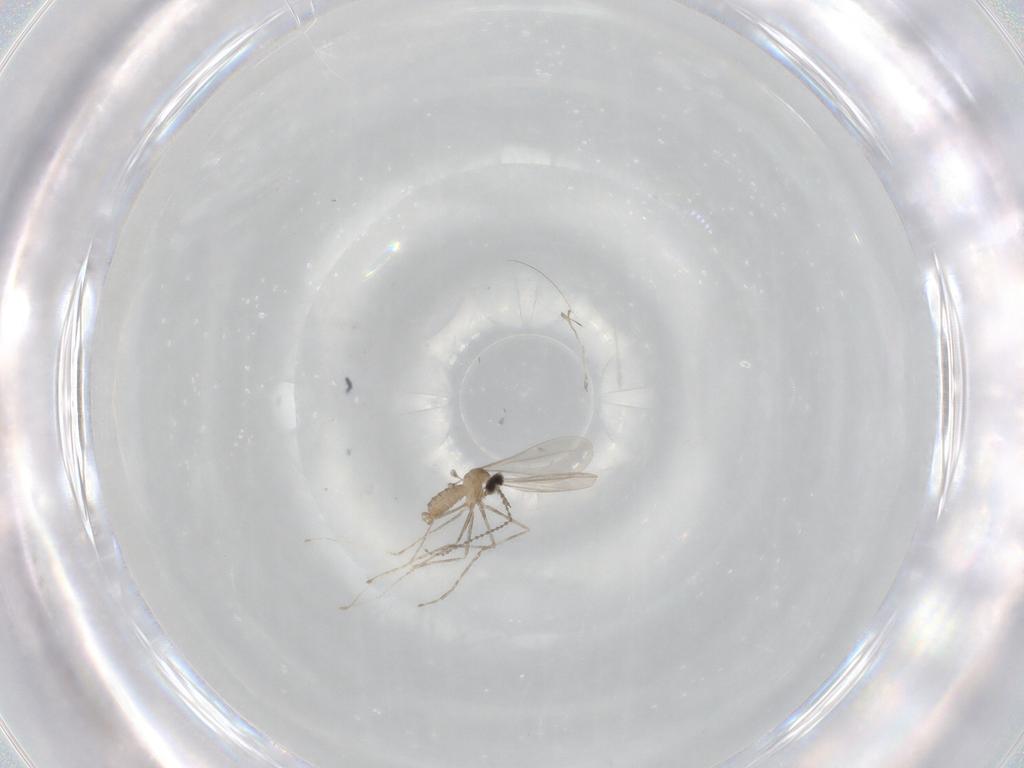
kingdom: Animalia
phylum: Arthropoda
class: Insecta
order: Diptera
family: Cecidomyiidae
